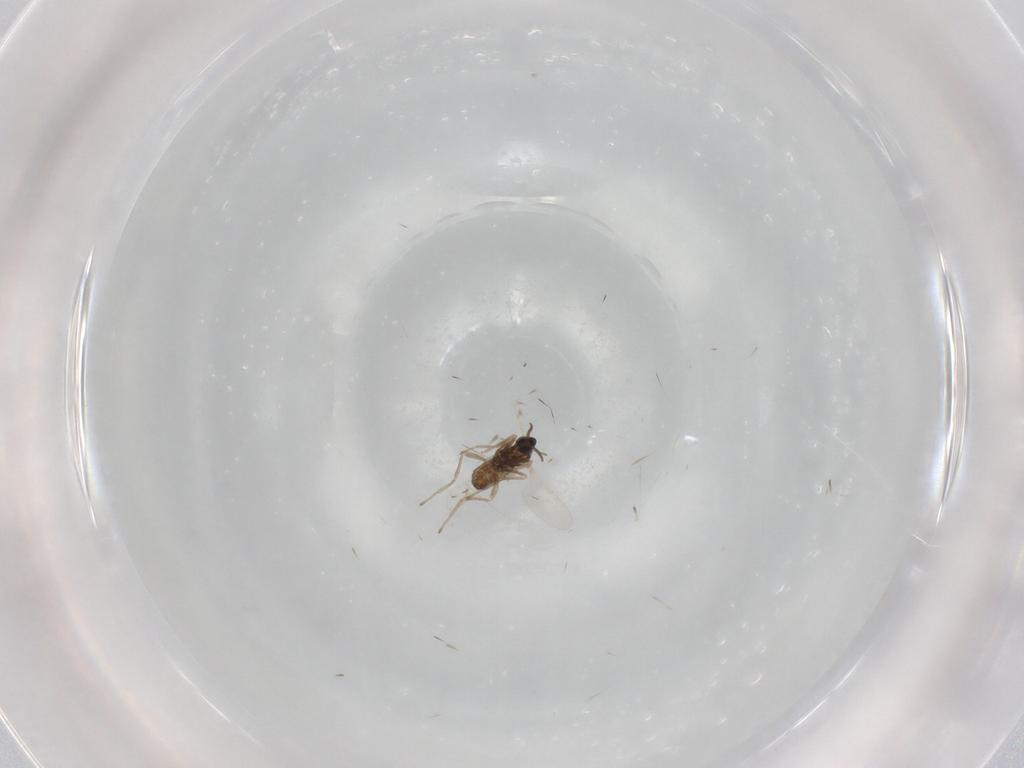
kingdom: Animalia
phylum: Arthropoda
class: Insecta
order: Diptera
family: Cecidomyiidae
